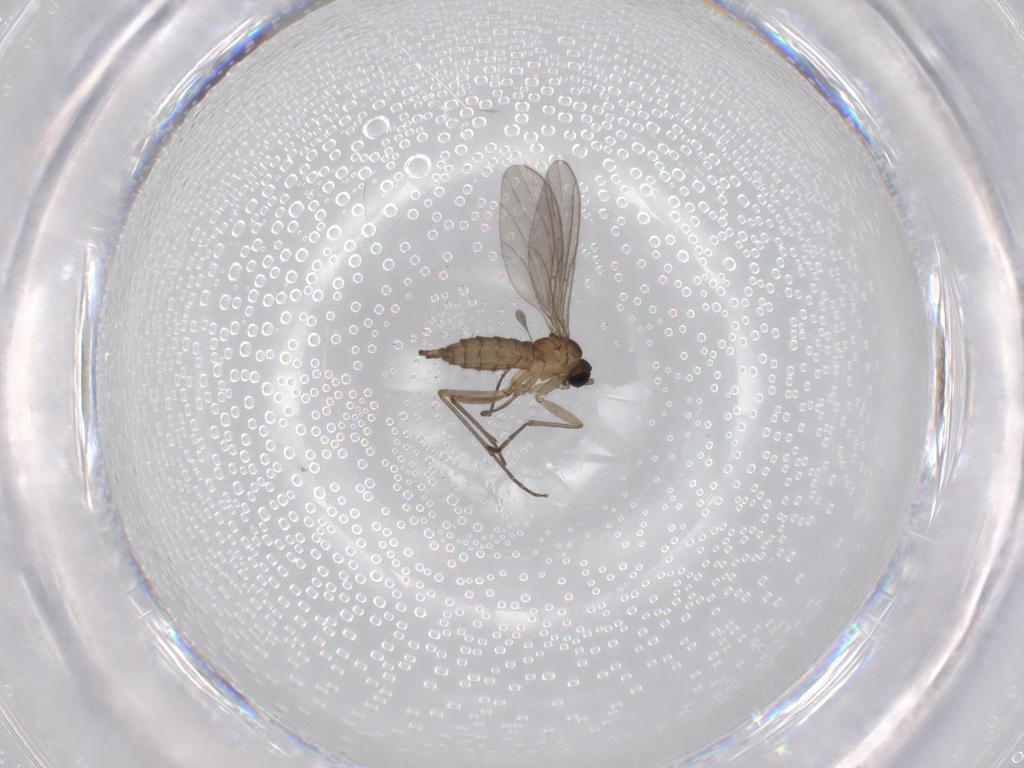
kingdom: Animalia
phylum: Arthropoda
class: Insecta
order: Diptera
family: Sciaridae
